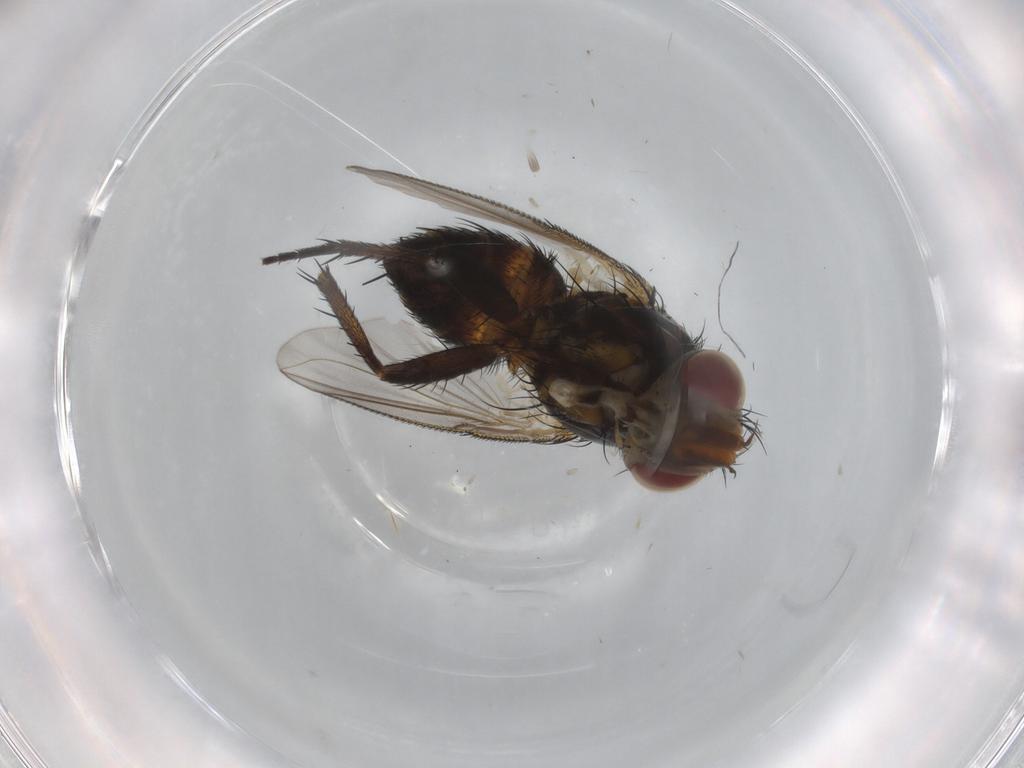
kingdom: Animalia
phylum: Arthropoda
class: Insecta
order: Diptera
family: Tachinidae
